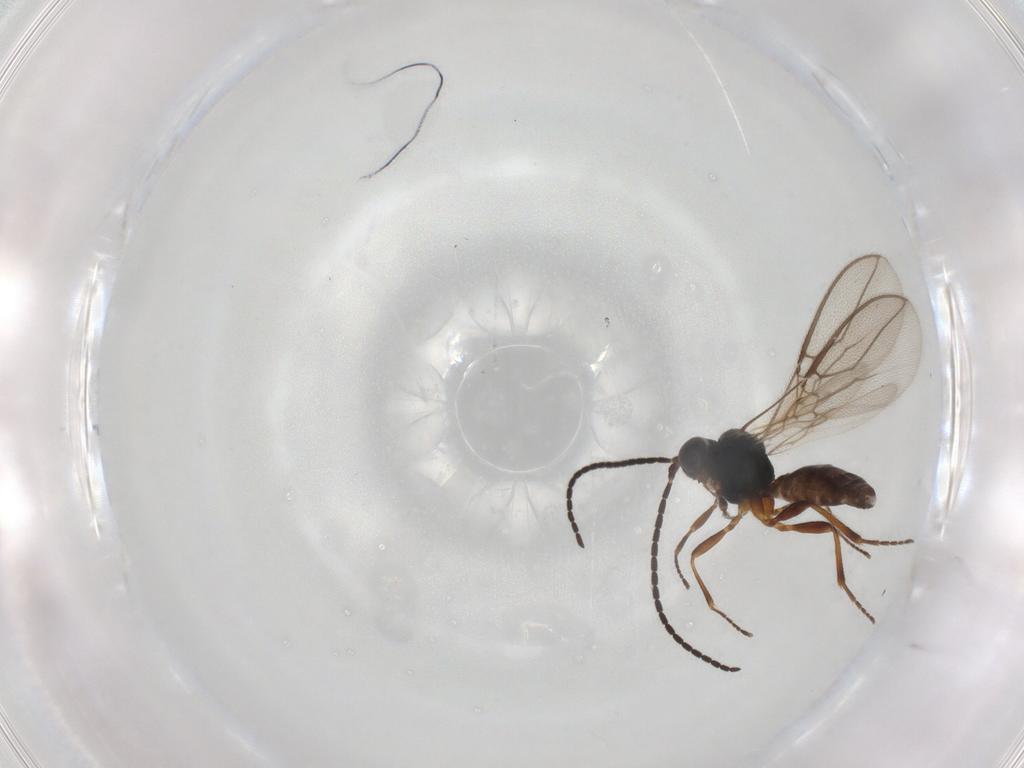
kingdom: Animalia
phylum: Arthropoda
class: Insecta
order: Hymenoptera
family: Braconidae
